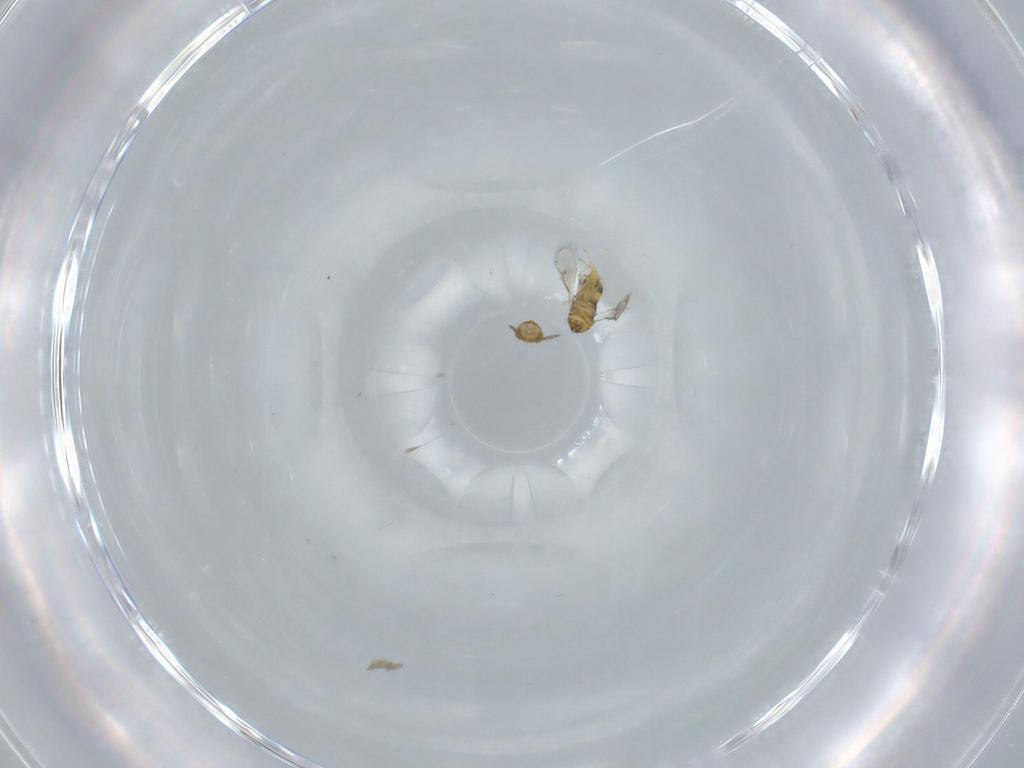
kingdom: Animalia
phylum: Arthropoda
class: Insecta
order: Hymenoptera
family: Aphelinidae
